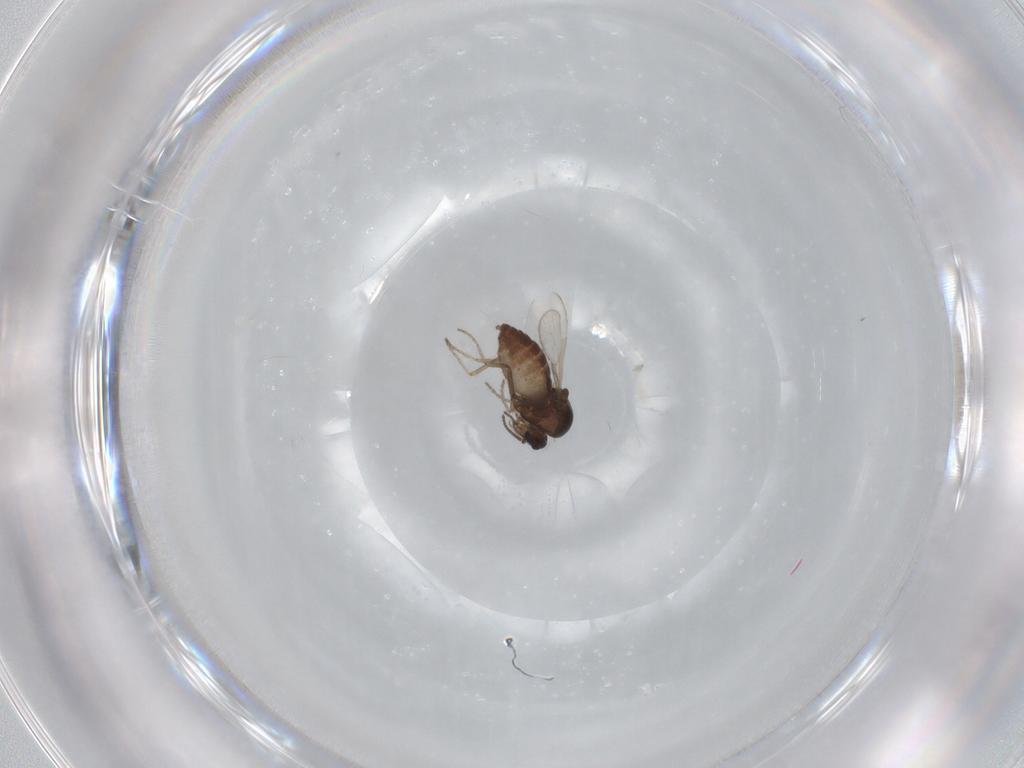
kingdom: Animalia
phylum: Arthropoda
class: Insecta
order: Diptera
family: Ceratopogonidae
